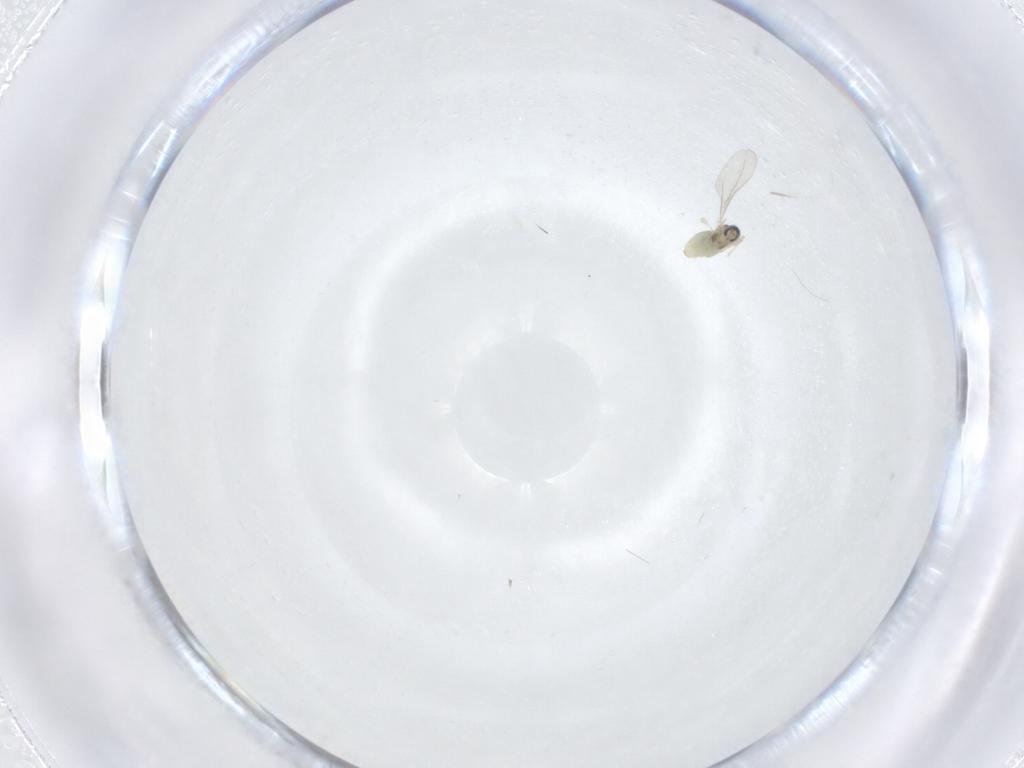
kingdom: Animalia
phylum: Arthropoda
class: Insecta
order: Diptera
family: Cecidomyiidae
